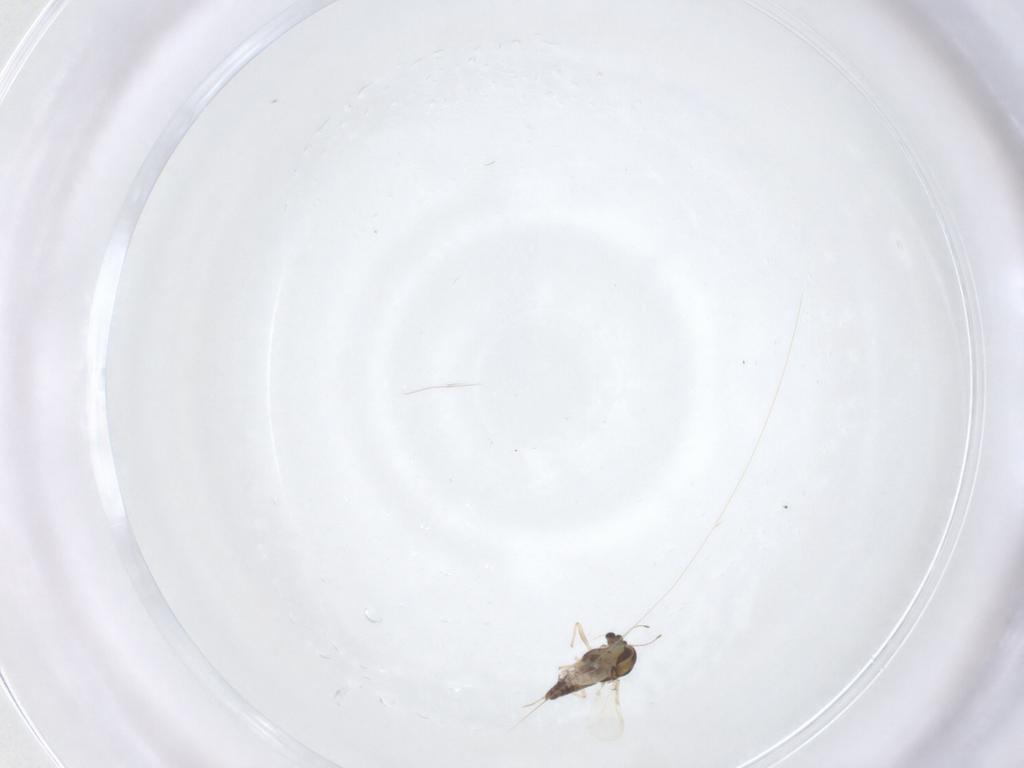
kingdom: Animalia
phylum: Arthropoda
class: Insecta
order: Diptera
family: Chironomidae
